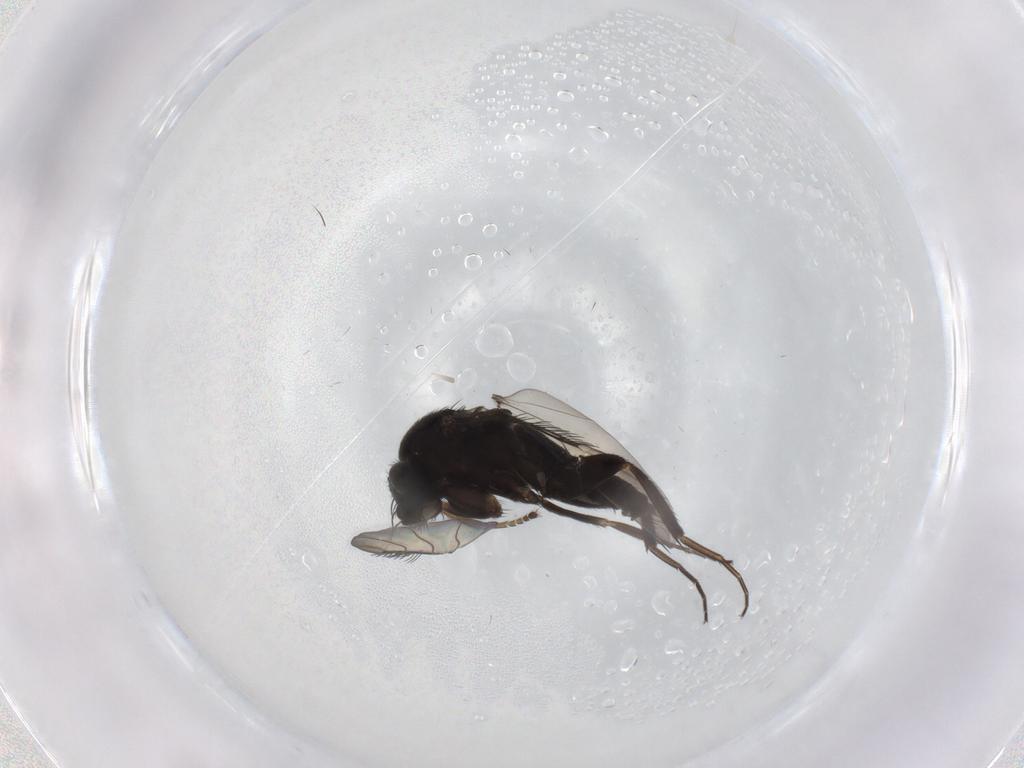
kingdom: Animalia
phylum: Arthropoda
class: Insecta
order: Diptera
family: Phoridae
